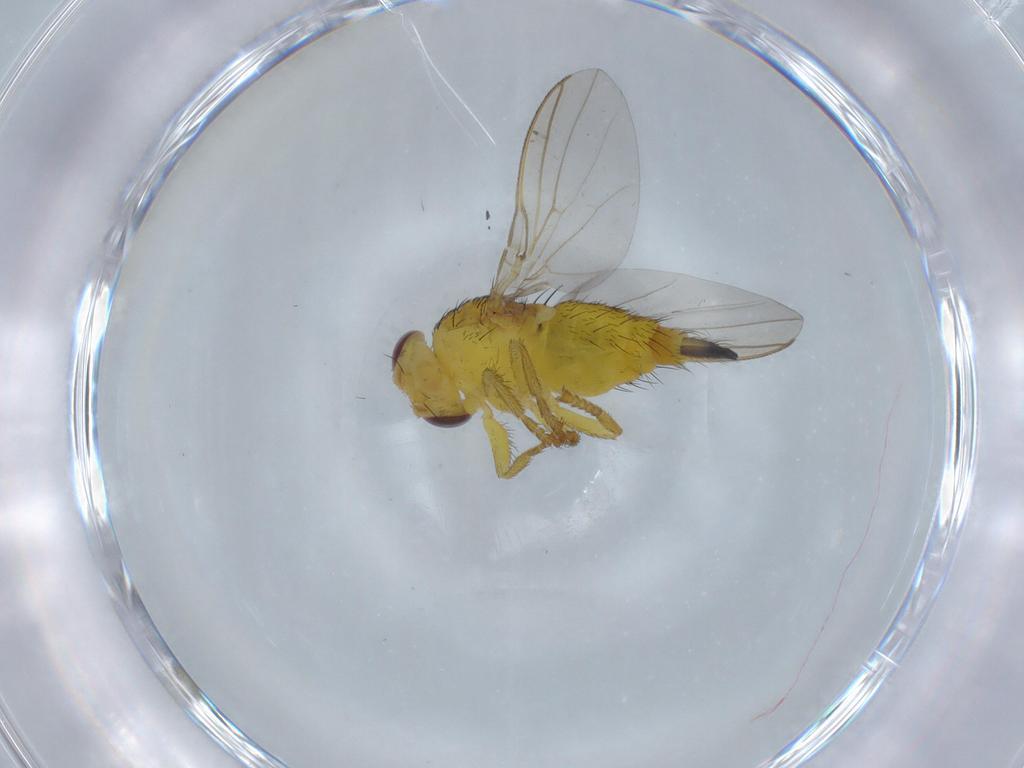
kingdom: Animalia
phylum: Arthropoda
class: Insecta
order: Diptera
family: Fergusoninidae
